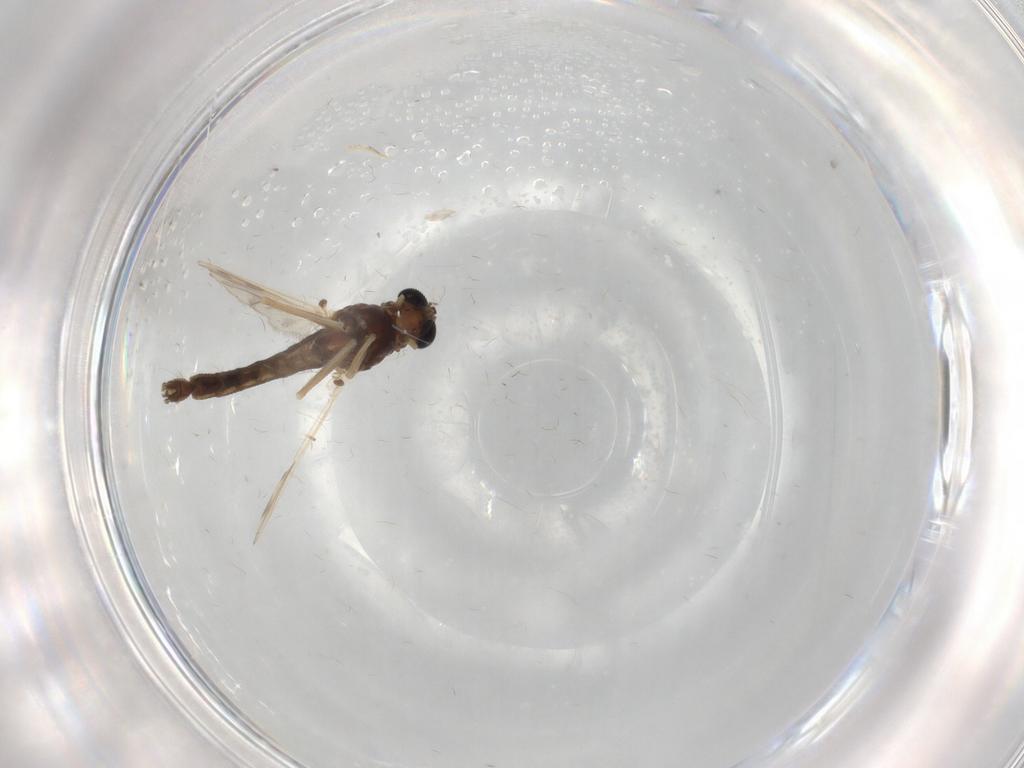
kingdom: Animalia
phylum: Arthropoda
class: Insecta
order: Diptera
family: Chironomidae
